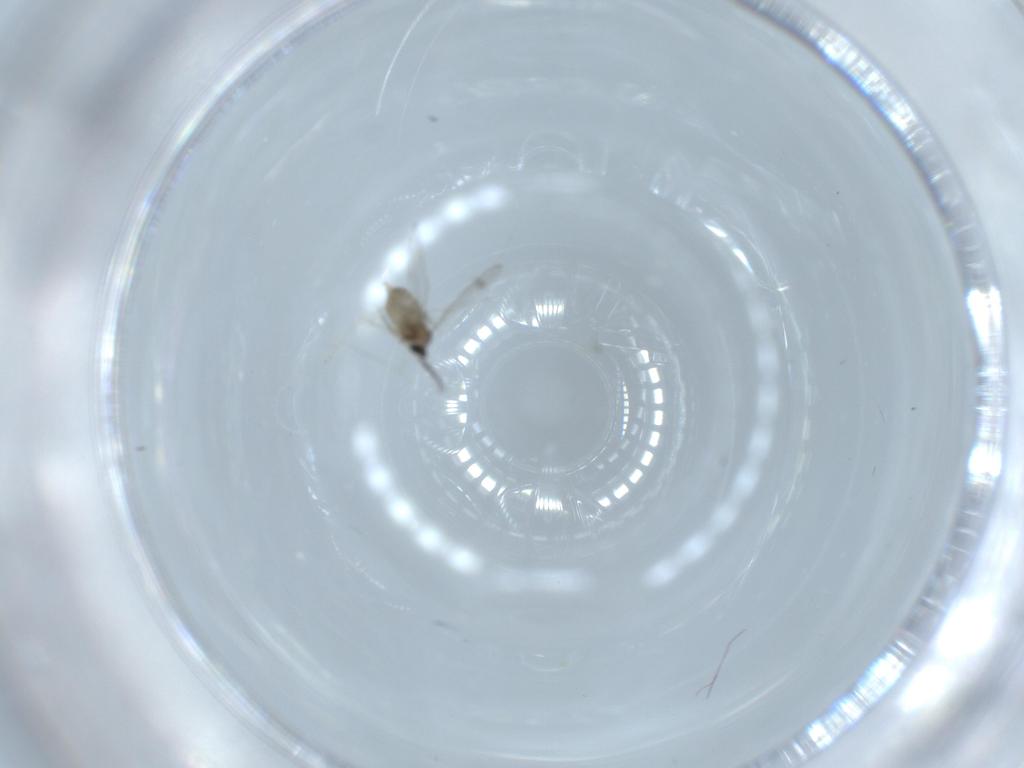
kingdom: Animalia
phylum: Arthropoda
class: Insecta
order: Diptera
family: Cecidomyiidae
